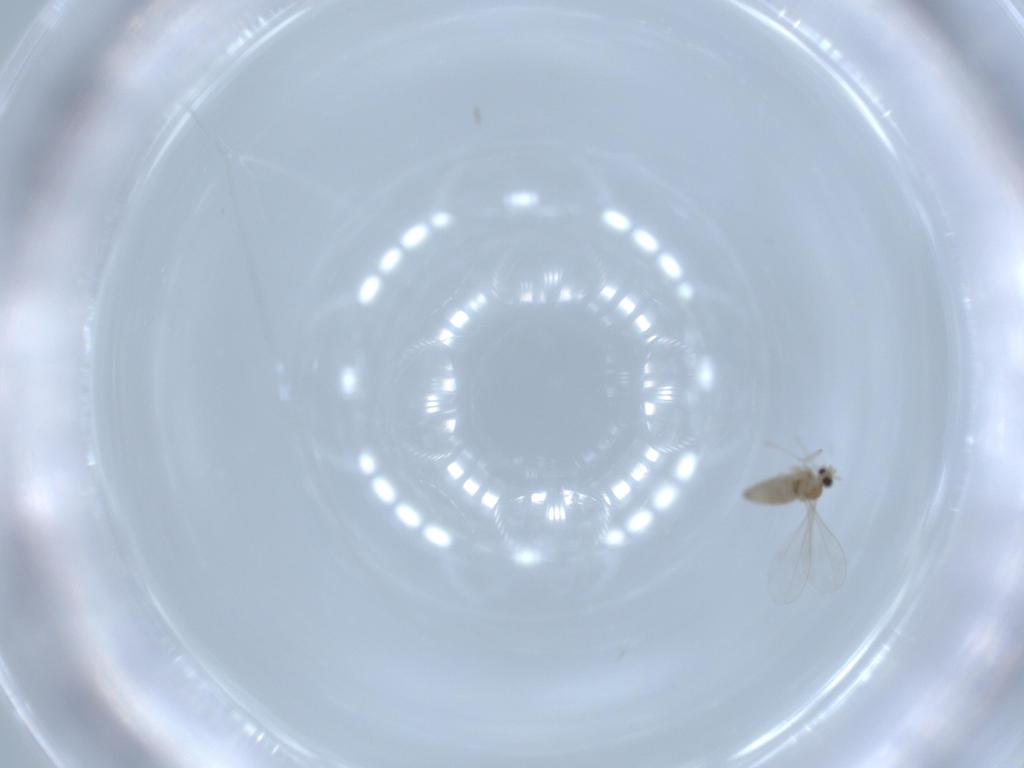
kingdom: Animalia
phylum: Arthropoda
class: Insecta
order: Diptera
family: Cecidomyiidae
